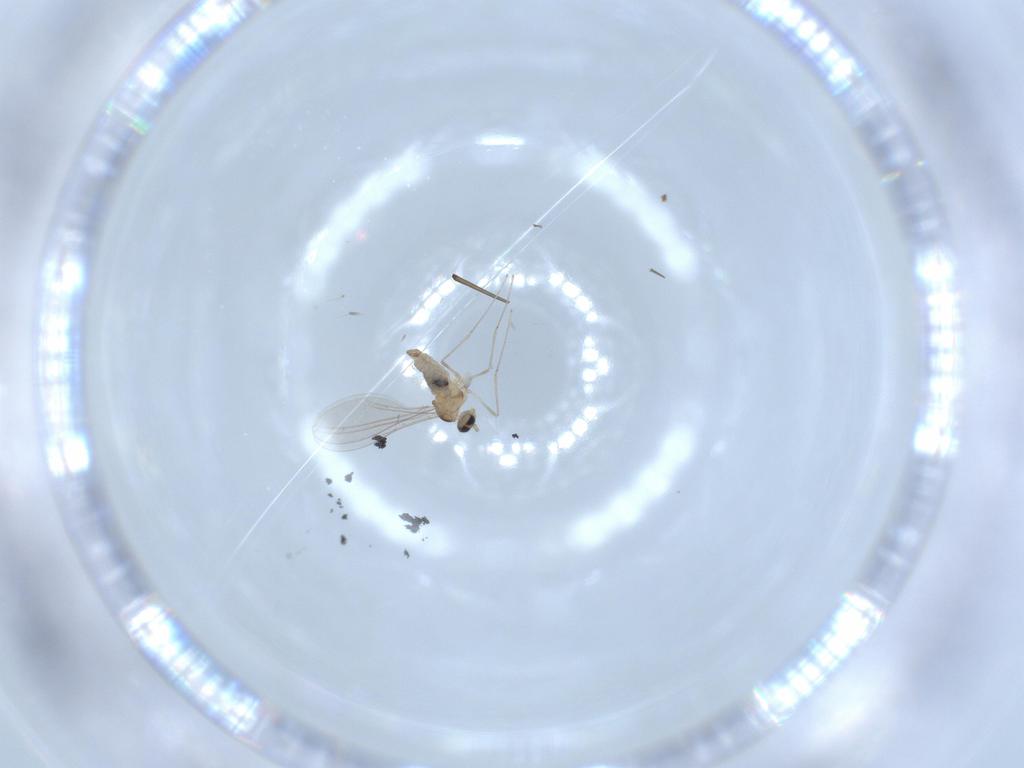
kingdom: Animalia
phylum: Arthropoda
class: Insecta
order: Diptera
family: Cecidomyiidae
